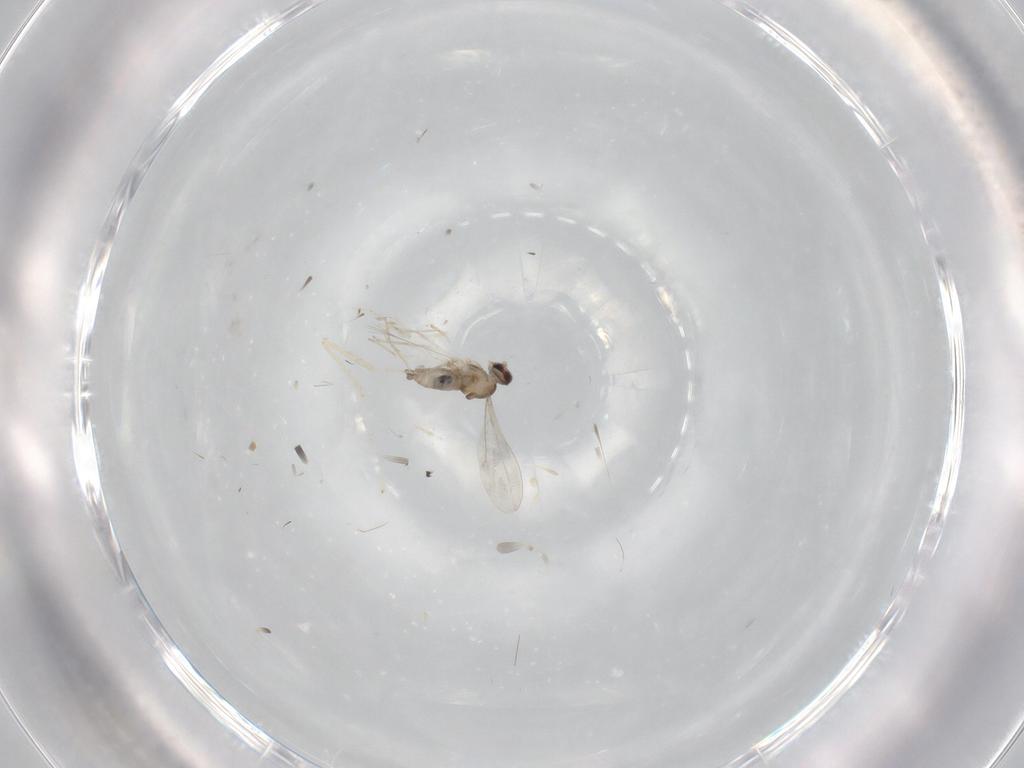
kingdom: Animalia
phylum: Arthropoda
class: Insecta
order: Diptera
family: Cecidomyiidae
